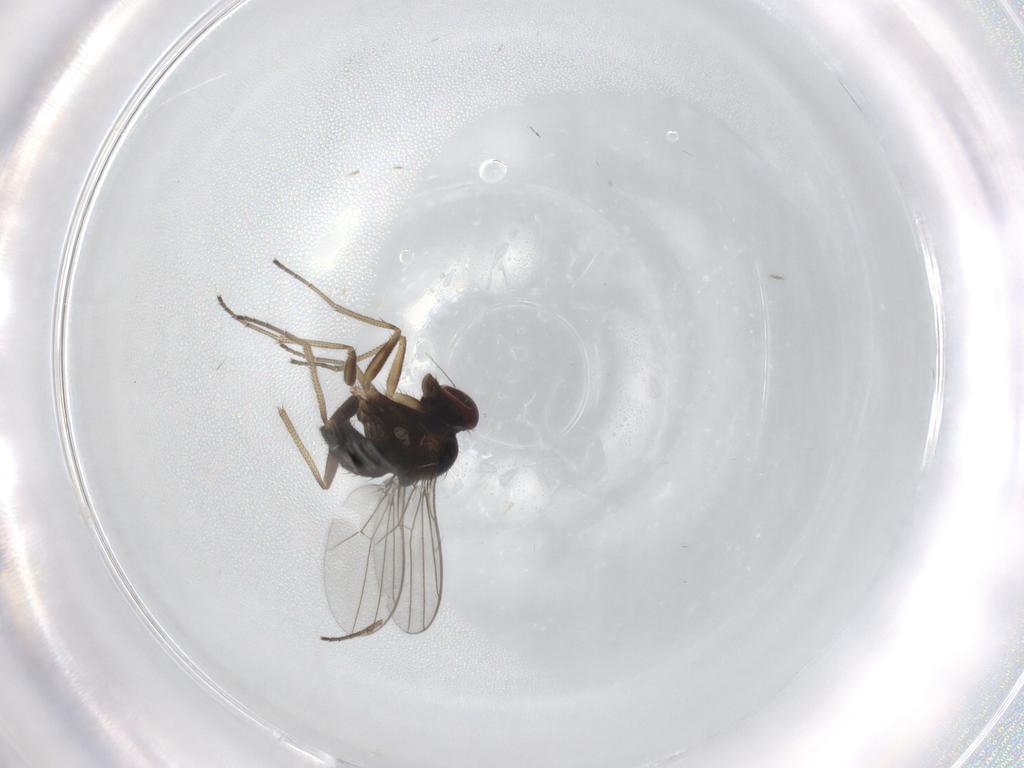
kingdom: Animalia
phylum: Arthropoda
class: Insecta
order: Diptera
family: Dolichopodidae
